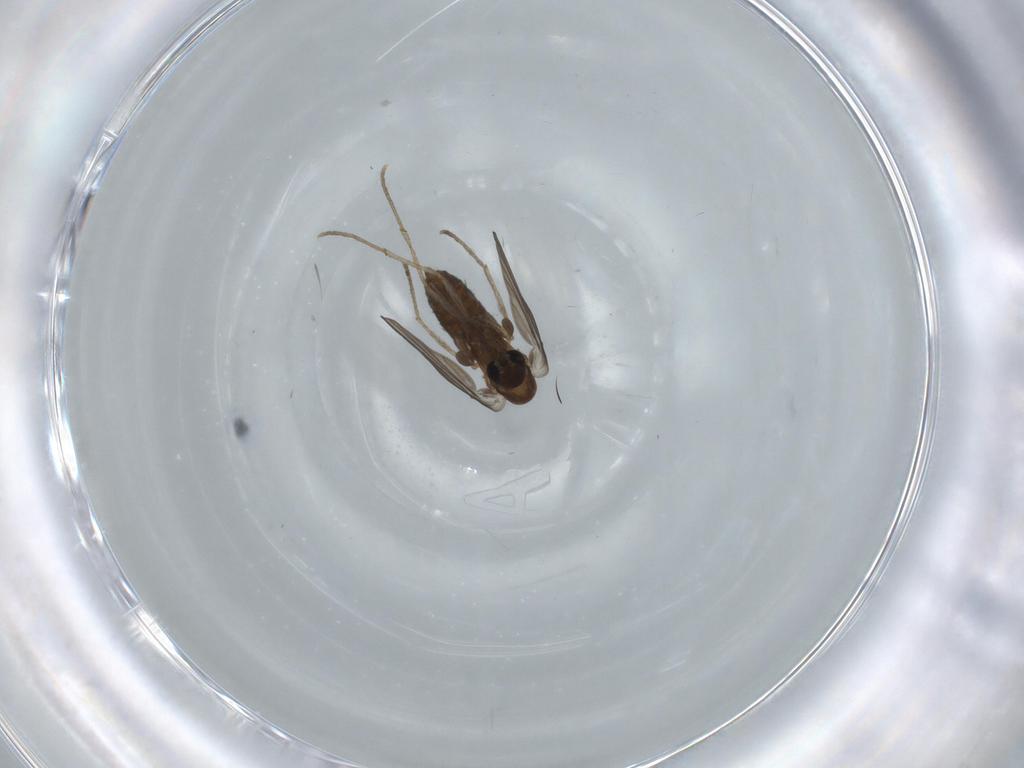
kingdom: Animalia
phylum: Arthropoda
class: Insecta
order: Diptera
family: Psychodidae
